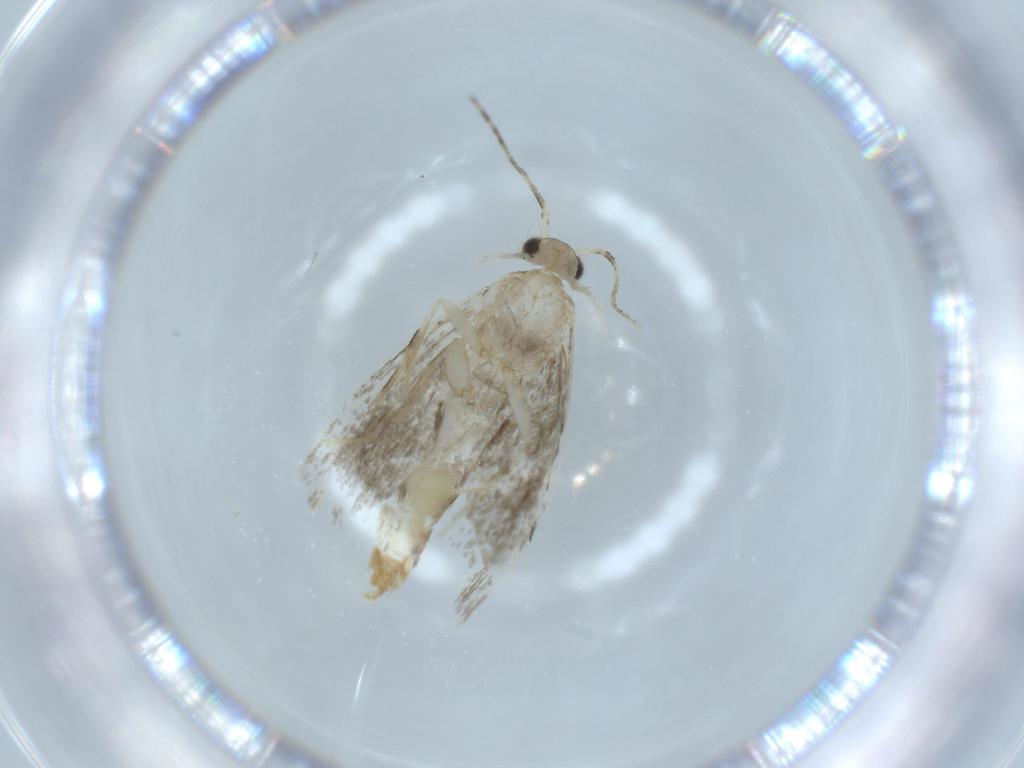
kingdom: Animalia
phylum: Arthropoda
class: Insecta
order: Lepidoptera
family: Tineidae
